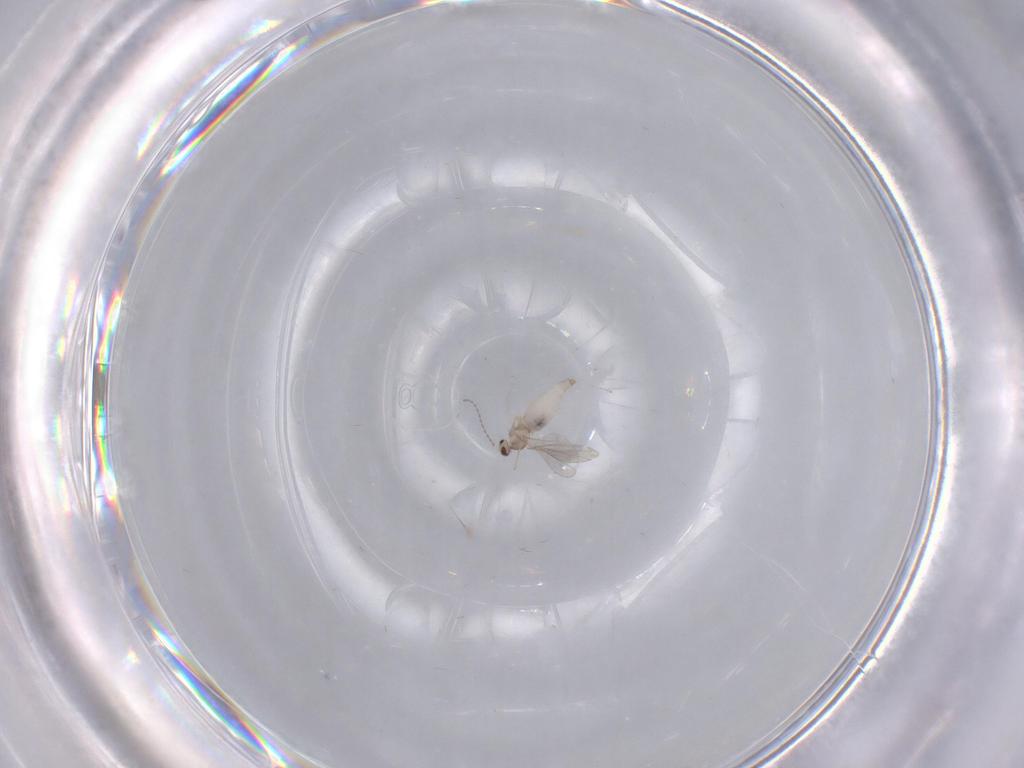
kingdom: Animalia
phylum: Arthropoda
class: Insecta
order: Diptera
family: Cecidomyiidae
